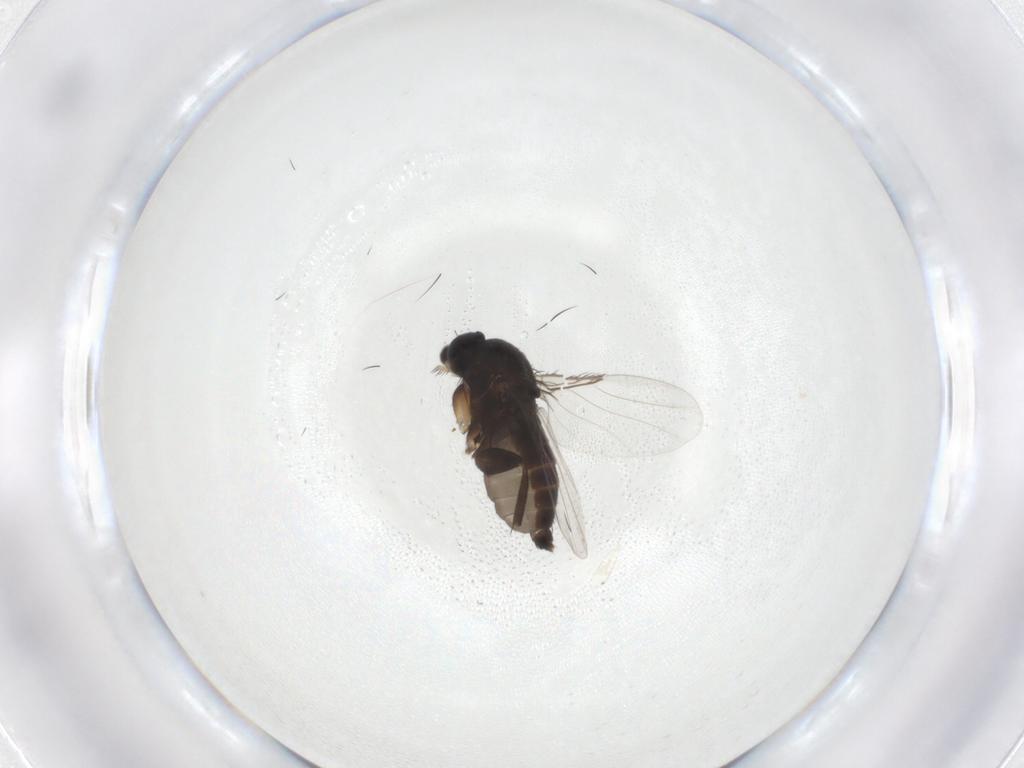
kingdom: Animalia
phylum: Arthropoda
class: Insecta
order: Diptera
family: Phoridae
